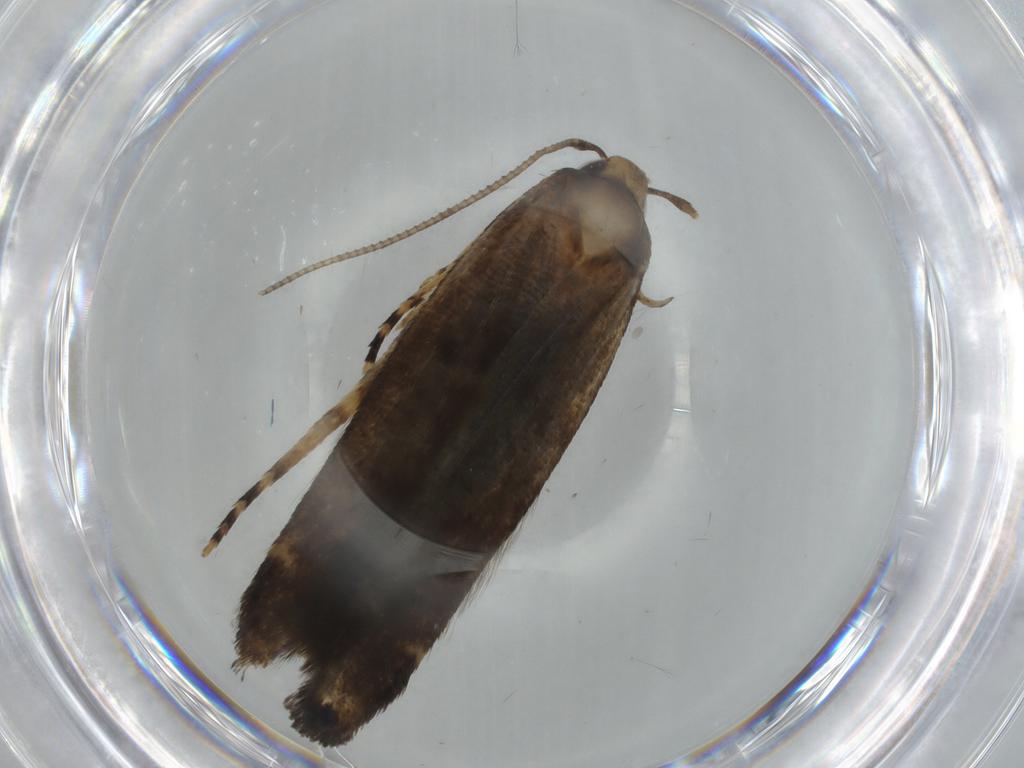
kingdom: Animalia
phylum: Arthropoda
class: Insecta
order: Lepidoptera
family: Cosmopterigidae
